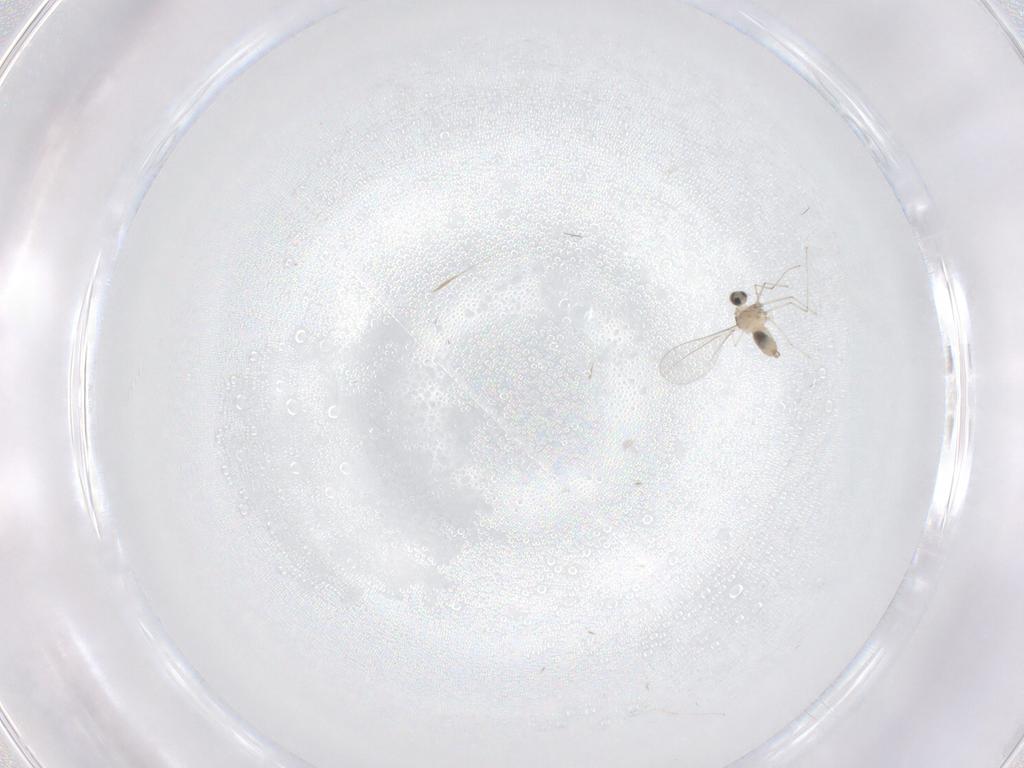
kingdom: Animalia
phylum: Arthropoda
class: Insecta
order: Diptera
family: Cecidomyiidae
